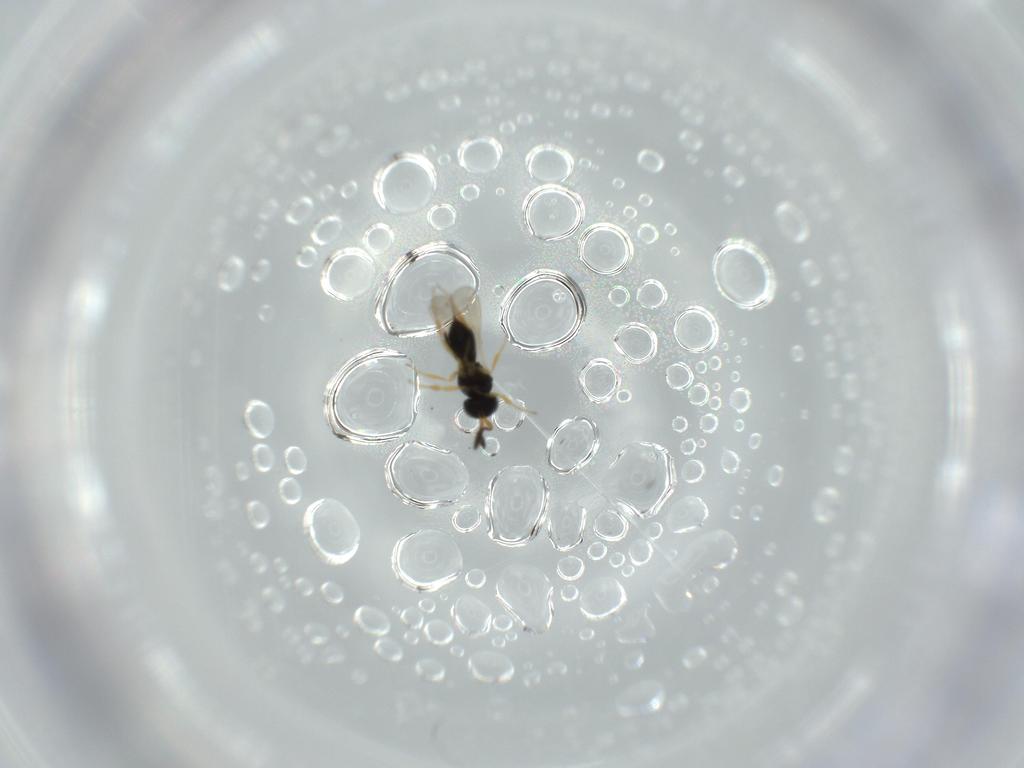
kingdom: Animalia
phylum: Arthropoda
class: Insecta
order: Hymenoptera
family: Scelionidae
